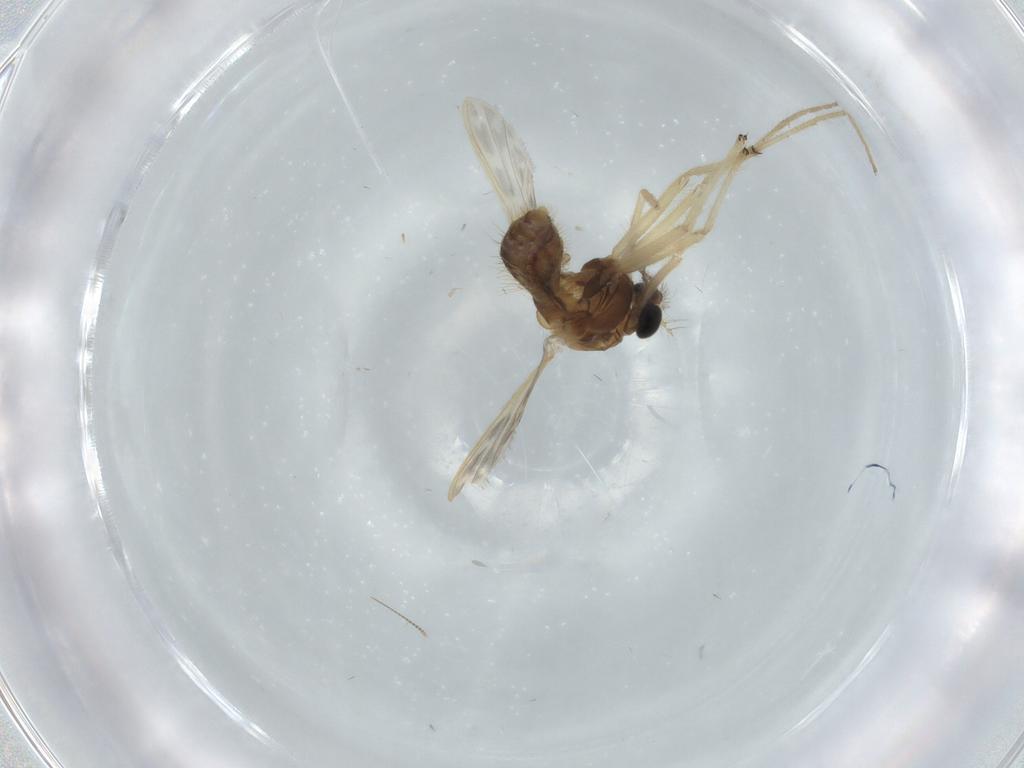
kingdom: Animalia
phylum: Arthropoda
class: Insecta
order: Diptera
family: Chironomidae
